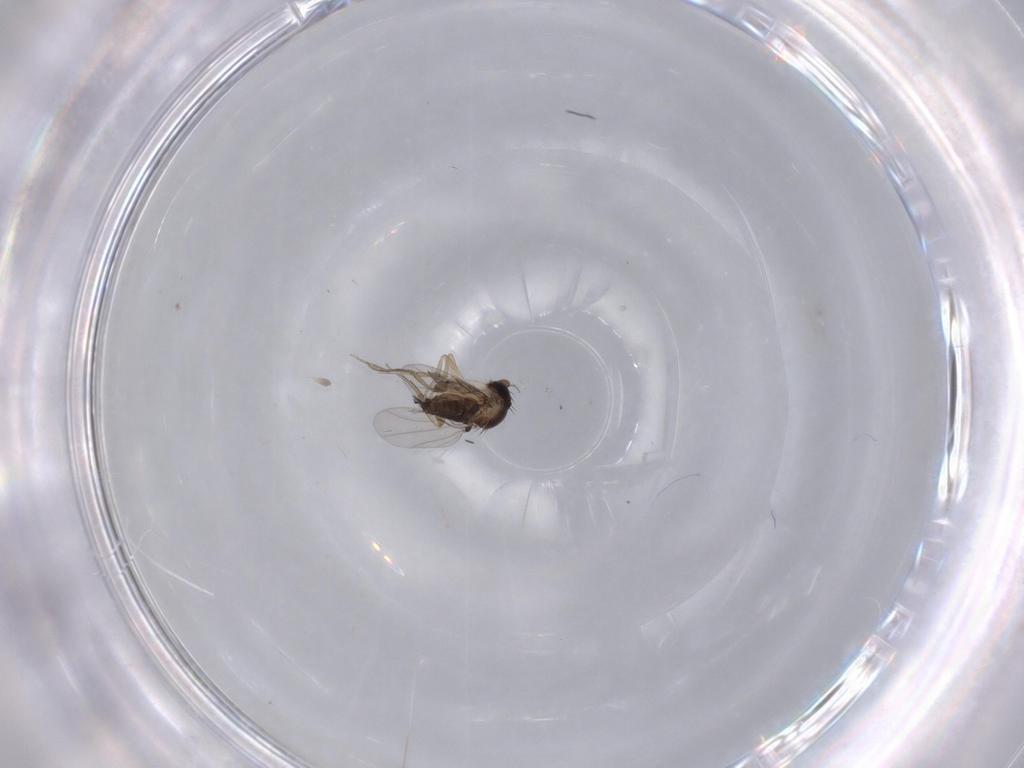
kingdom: Animalia
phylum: Arthropoda
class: Insecta
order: Diptera
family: Phoridae
